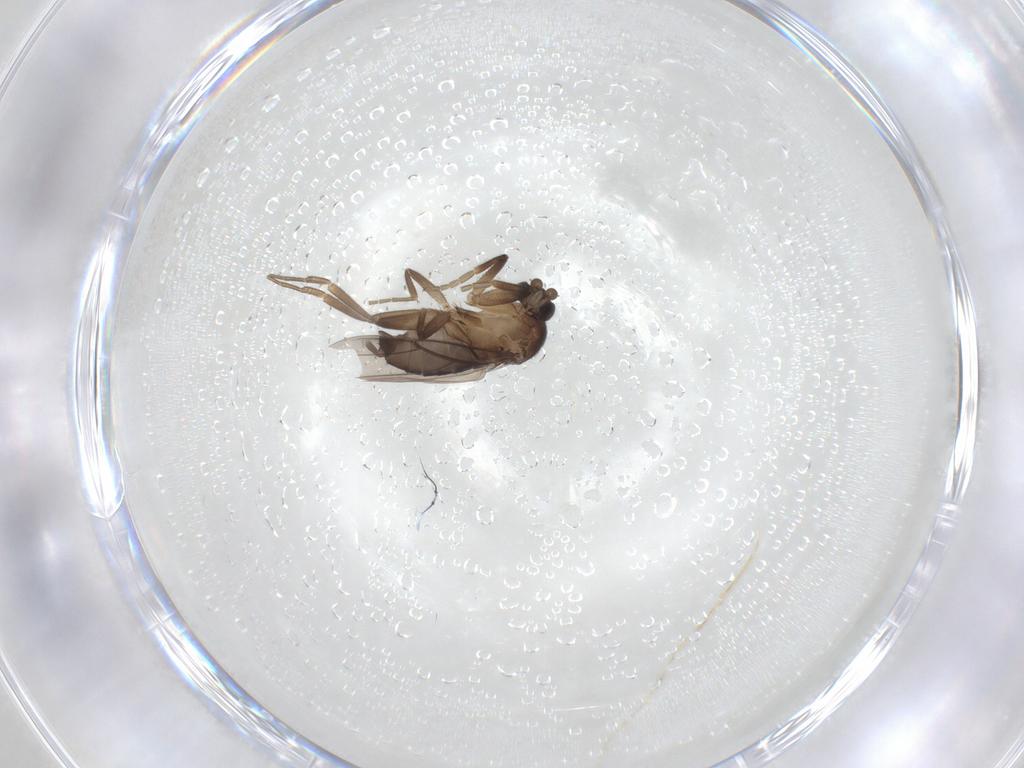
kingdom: Animalia
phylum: Arthropoda
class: Insecta
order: Diptera
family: Phoridae
